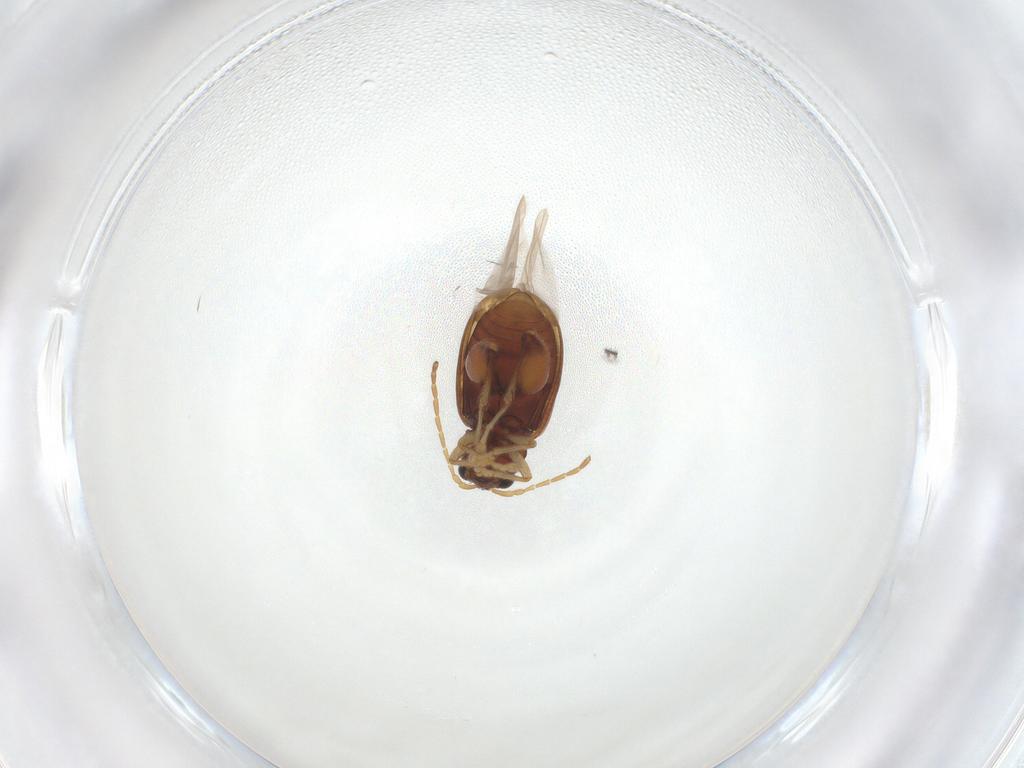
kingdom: Animalia
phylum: Arthropoda
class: Insecta
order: Coleoptera
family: Chrysomelidae
